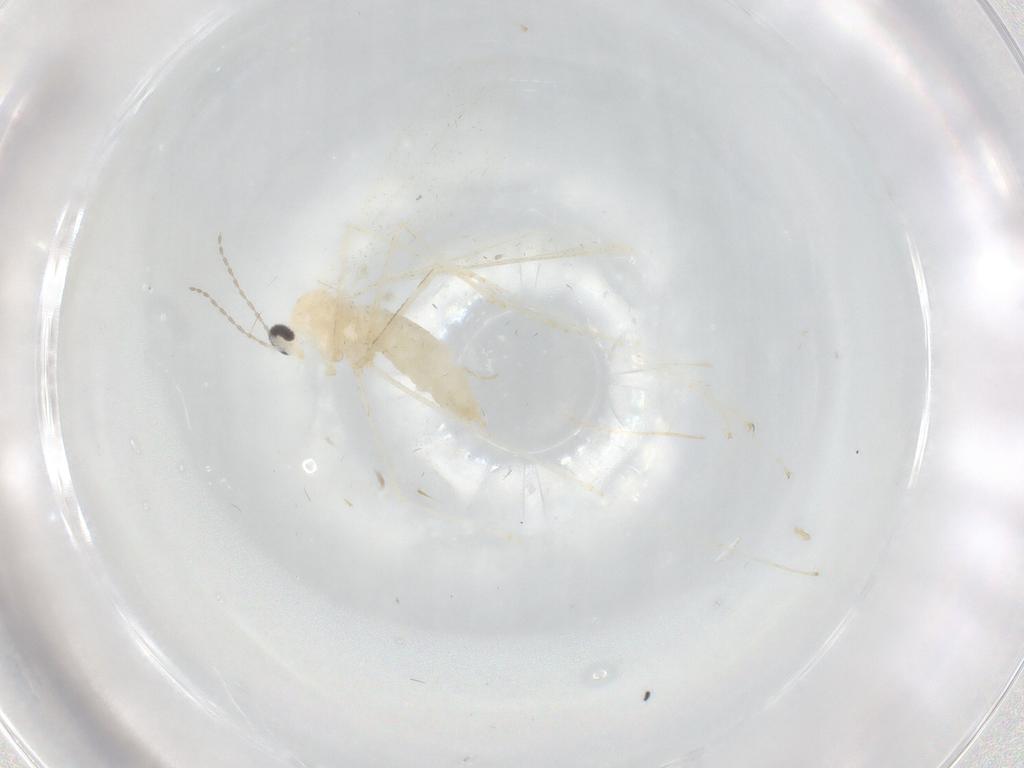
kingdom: Animalia
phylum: Arthropoda
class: Insecta
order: Diptera
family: Cecidomyiidae
